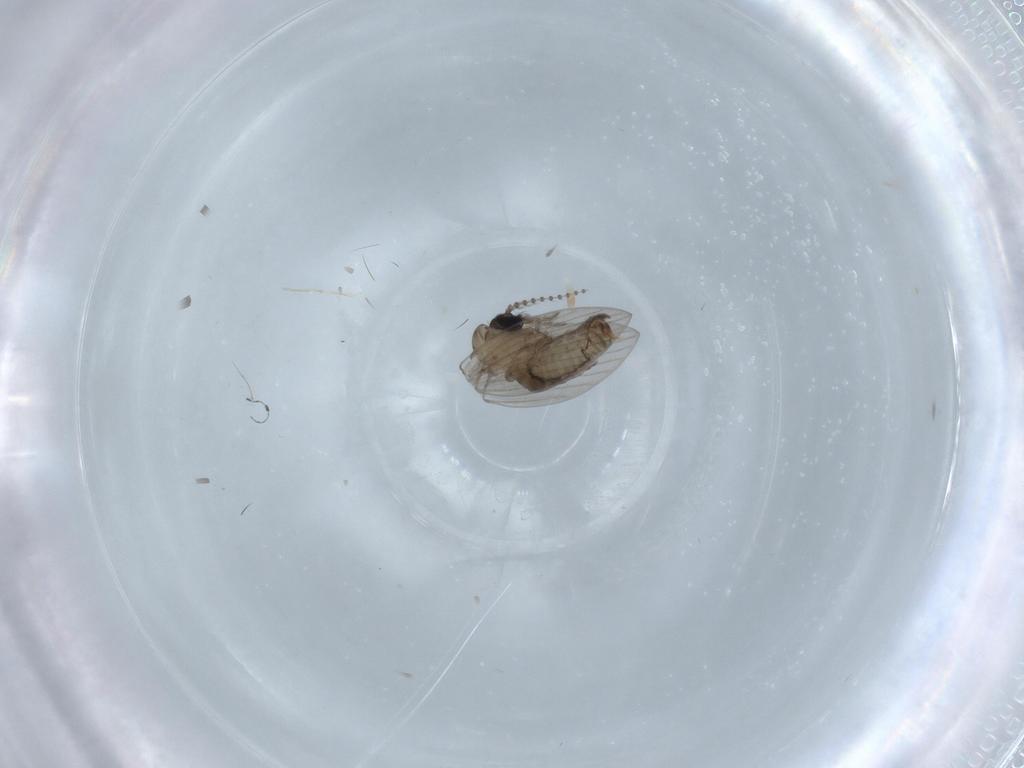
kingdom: Animalia
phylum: Arthropoda
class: Insecta
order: Diptera
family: Psychodidae
